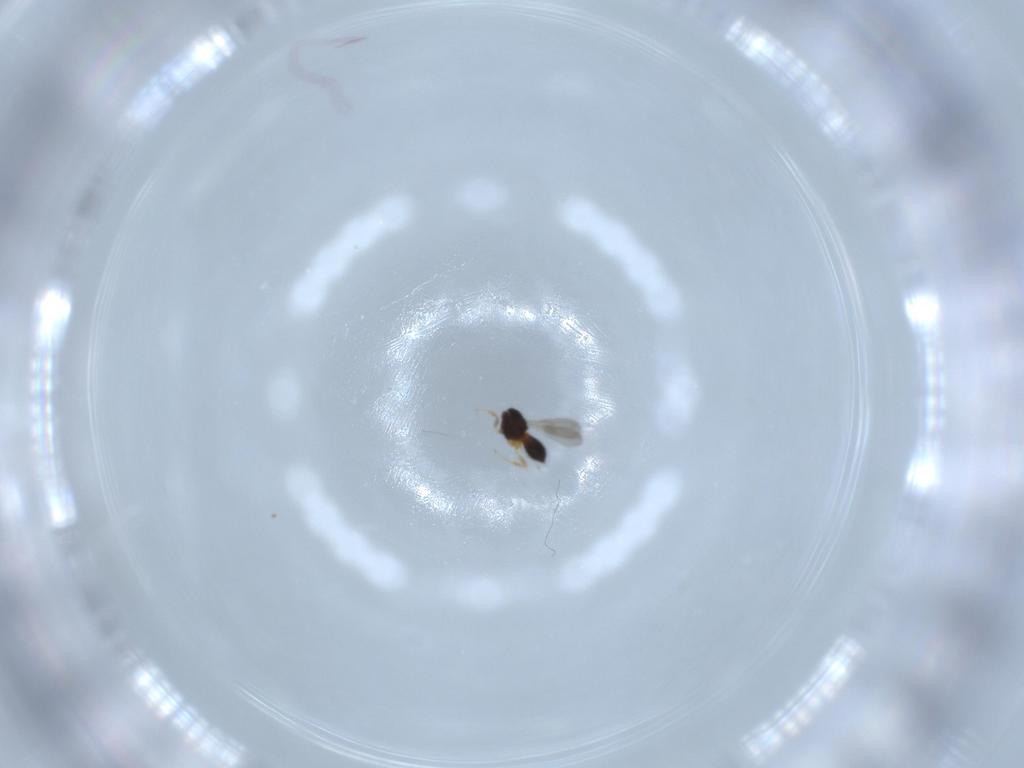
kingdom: Animalia
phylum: Arthropoda
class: Insecta
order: Hymenoptera
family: Scelionidae
